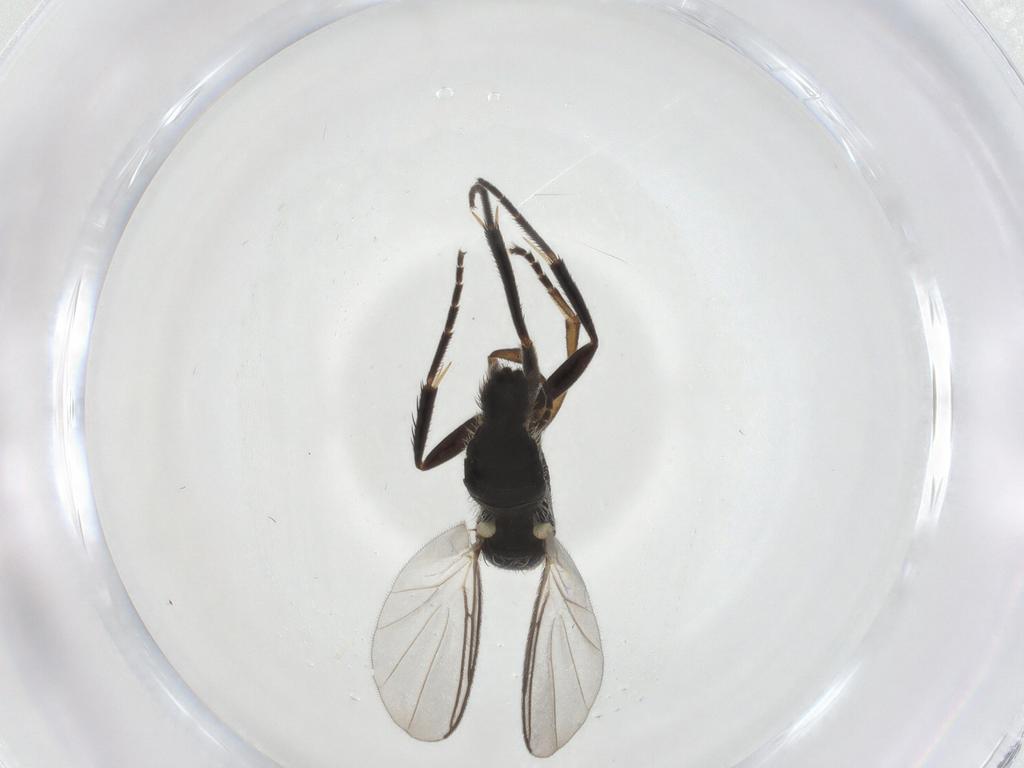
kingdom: Animalia
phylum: Arthropoda
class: Insecta
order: Diptera
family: Mycetophilidae
